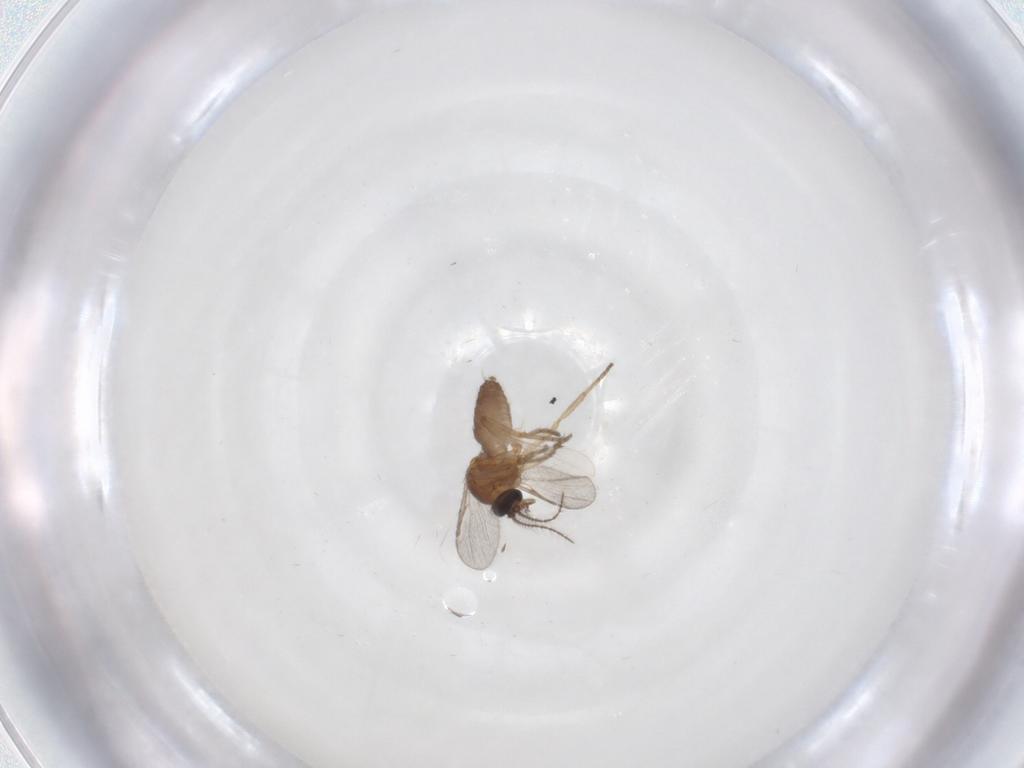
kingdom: Animalia
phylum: Arthropoda
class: Insecta
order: Diptera
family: Ceratopogonidae
